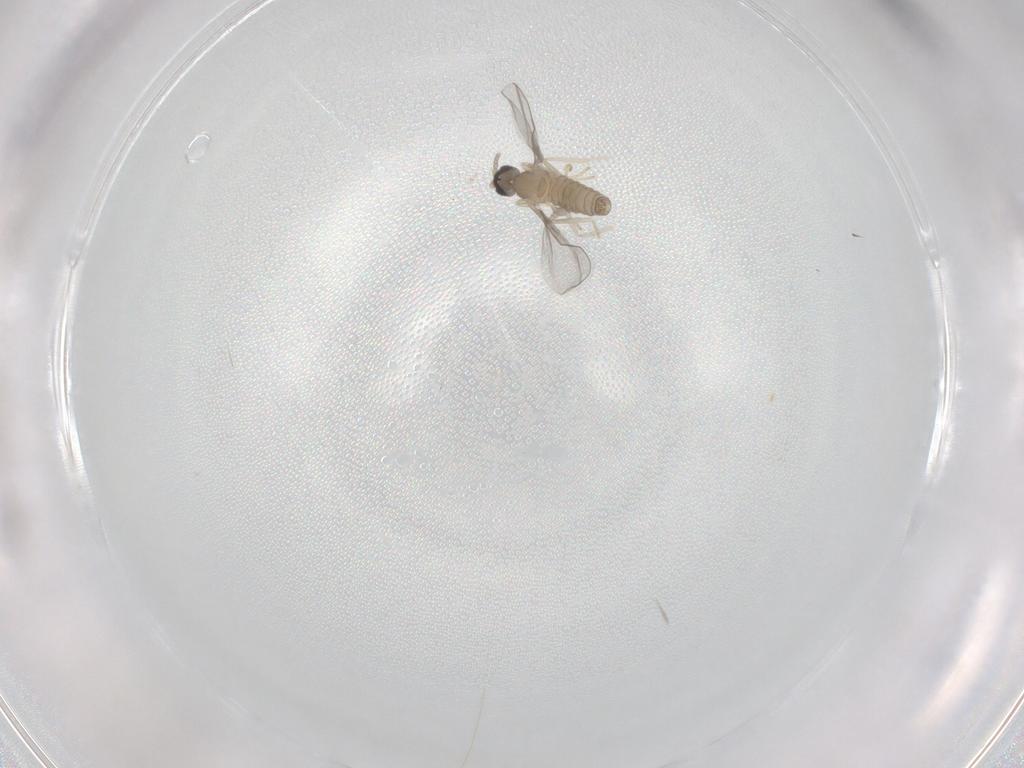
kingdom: Animalia
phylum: Arthropoda
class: Insecta
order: Diptera
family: Cecidomyiidae
